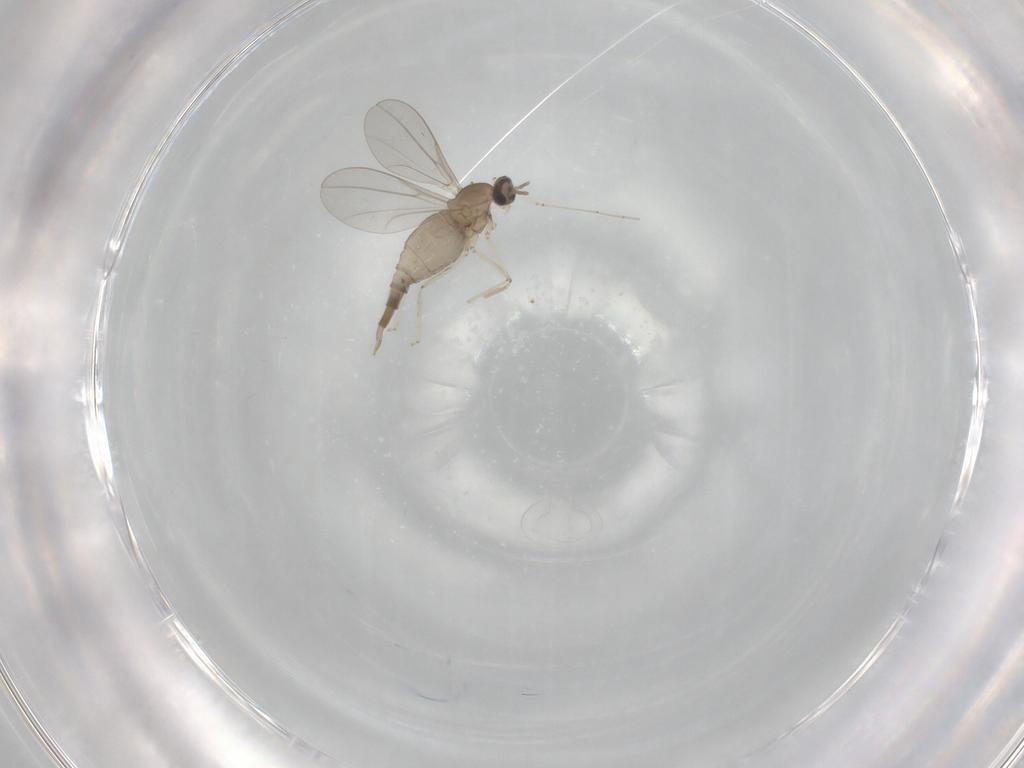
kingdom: Animalia
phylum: Arthropoda
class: Insecta
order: Diptera
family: Cecidomyiidae
